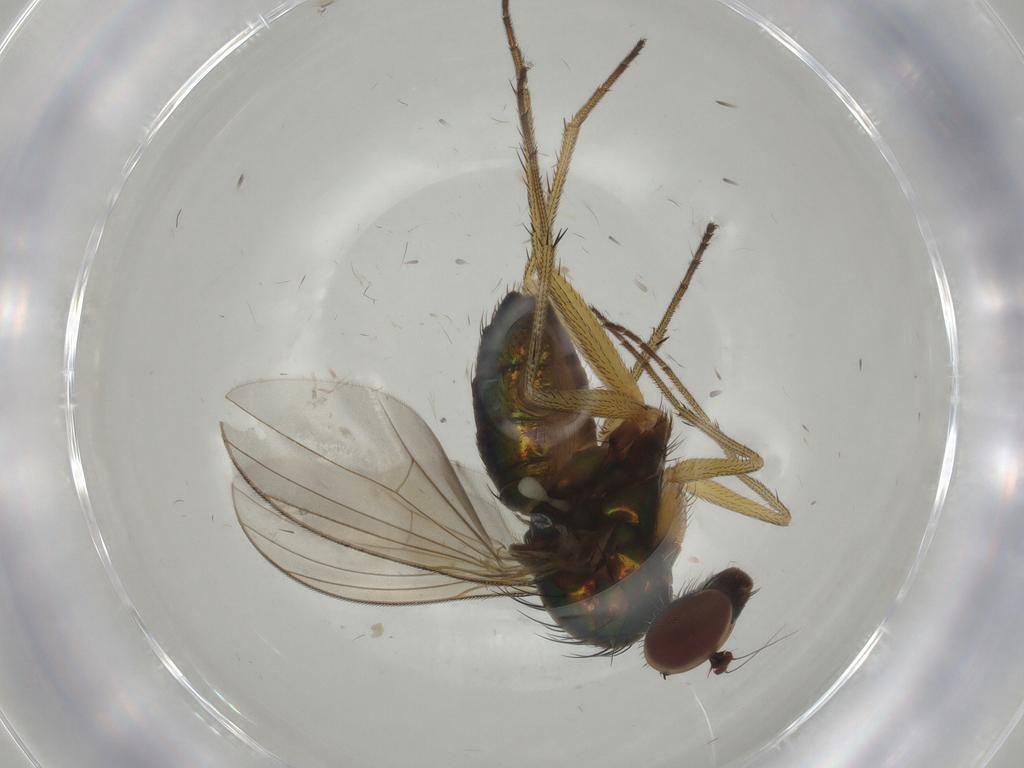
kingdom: Animalia
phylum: Arthropoda
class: Insecta
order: Diptera
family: Dolichopodidae
